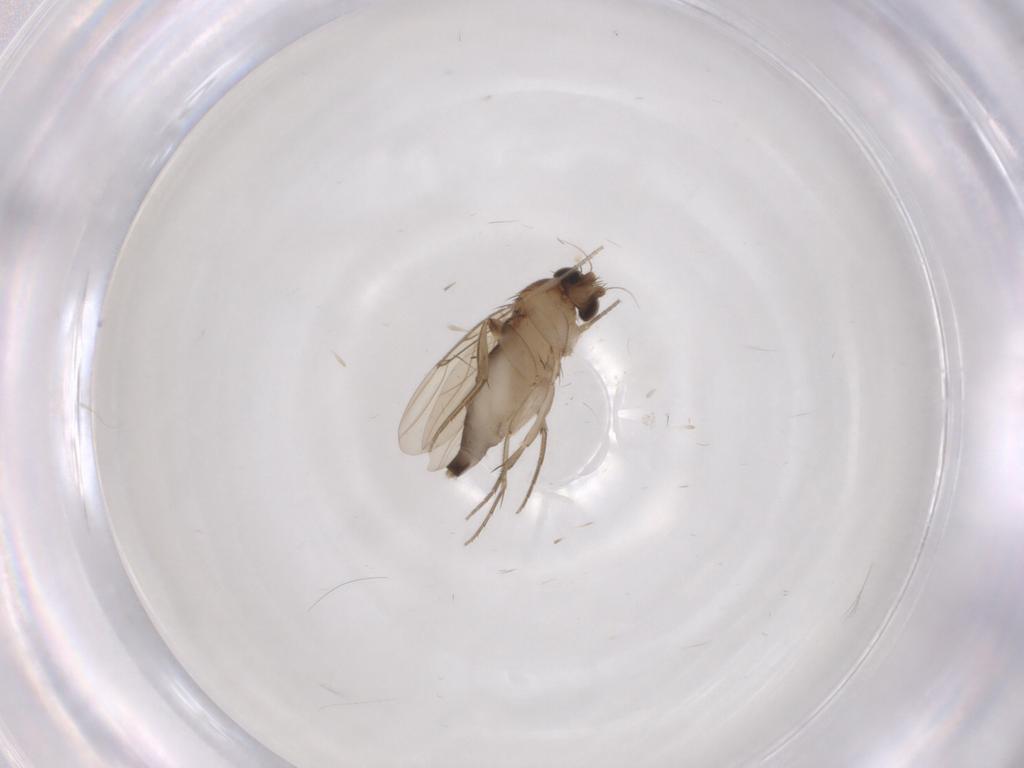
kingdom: Animalia
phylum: Arthropoda
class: Insecta
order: Diptera
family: Phoridae
